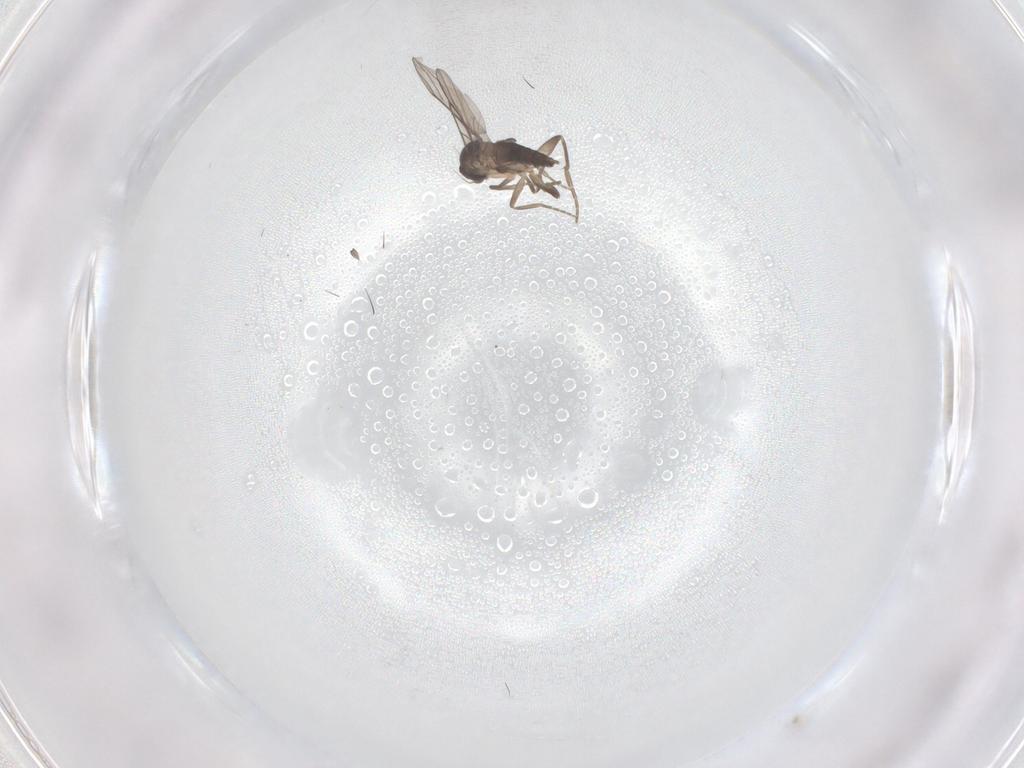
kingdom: Animalia
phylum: Arthropoda
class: Insecta
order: Diptera
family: Phoridae
